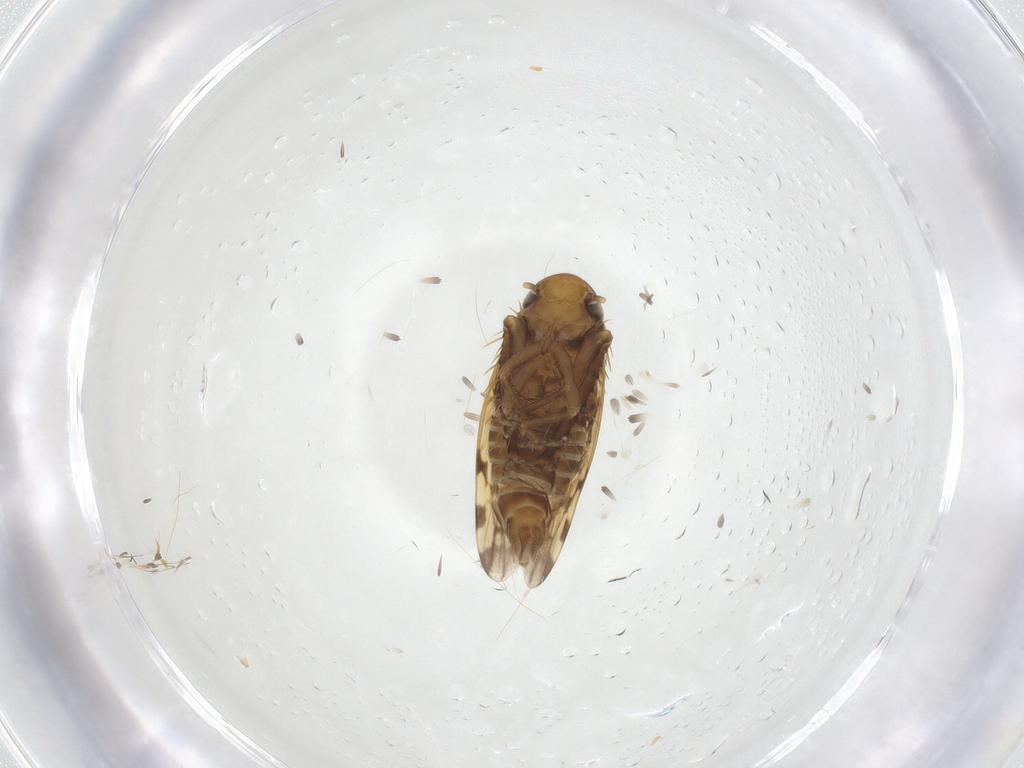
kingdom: Animalia
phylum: Arthropoda
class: Insecta
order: Hemiptera
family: Cicadellidae
